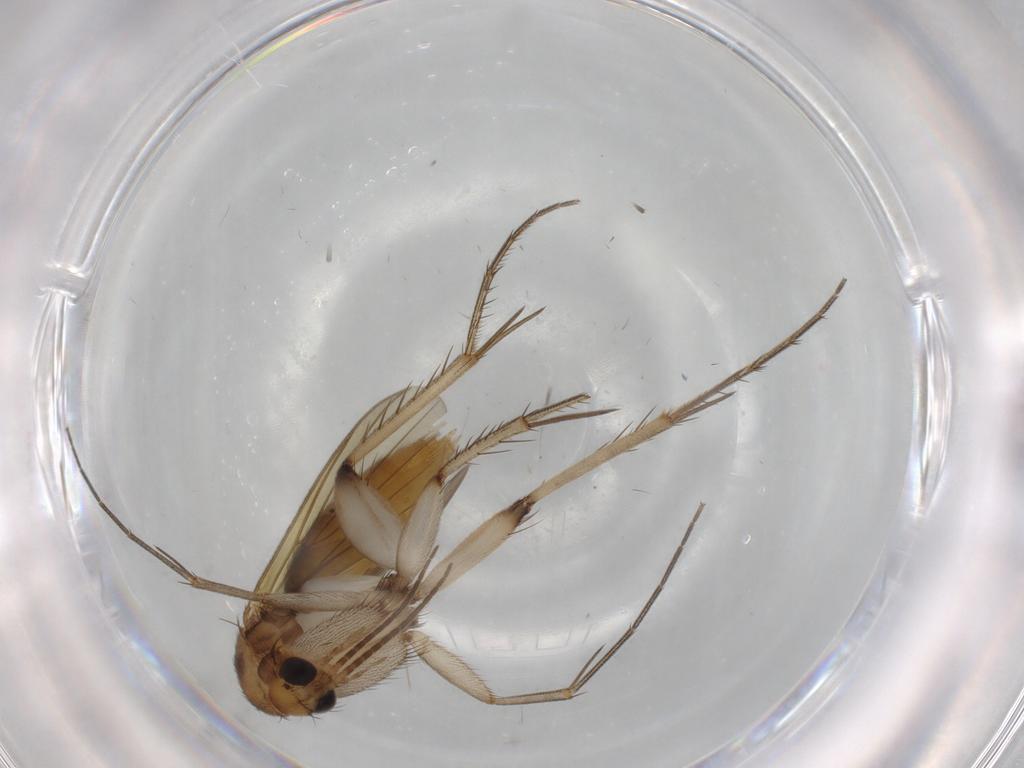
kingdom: Animalia
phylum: Arthropoda
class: Insecta
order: Diptera
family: Mycetophilidae
